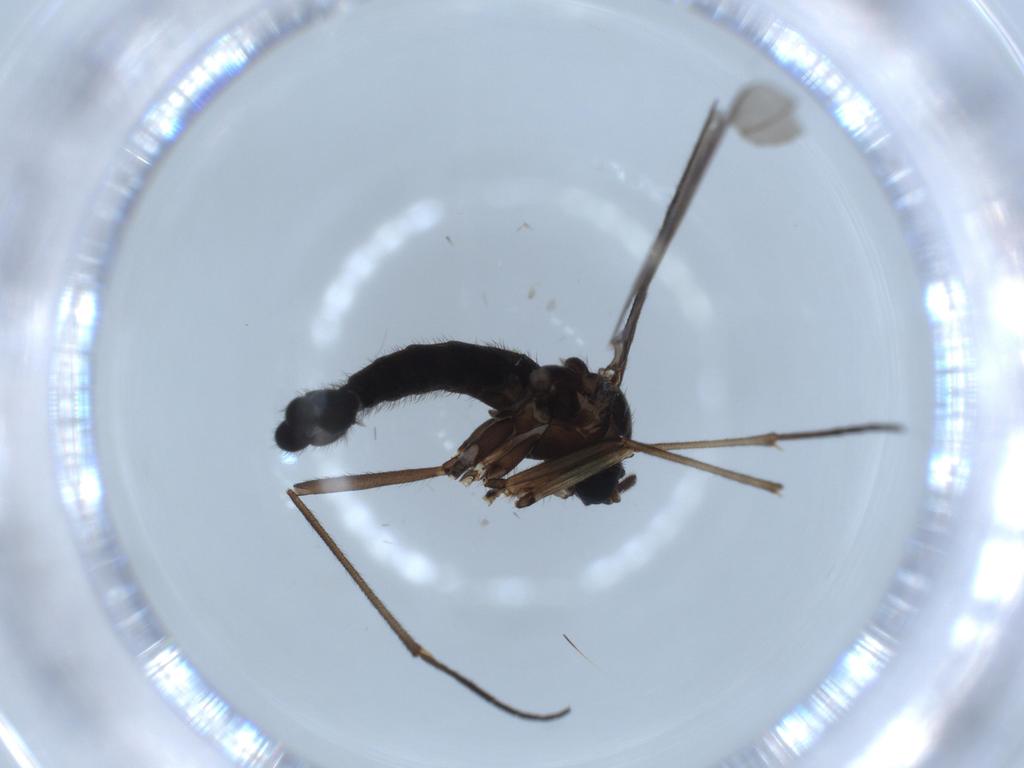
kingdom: Animalia
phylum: Arthropoda
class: Insecta
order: Diptera
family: Sciaridae
